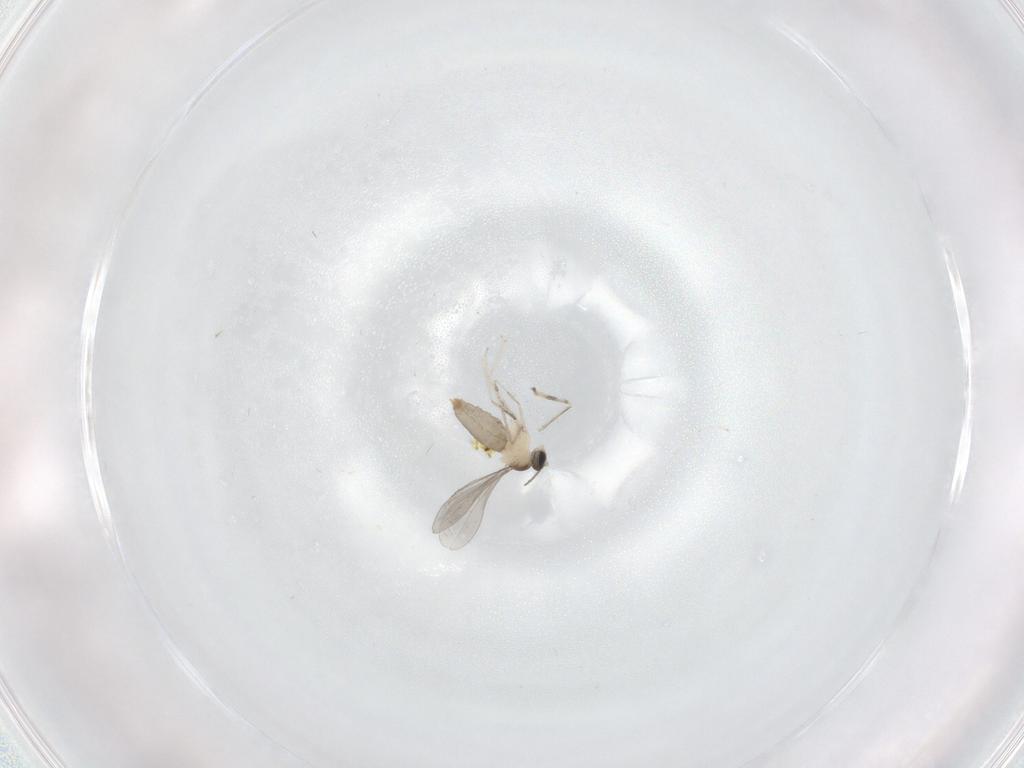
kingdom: Animalia
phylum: Arthropoda
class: Insecta
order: Diptera
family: Cecidomyiidae
